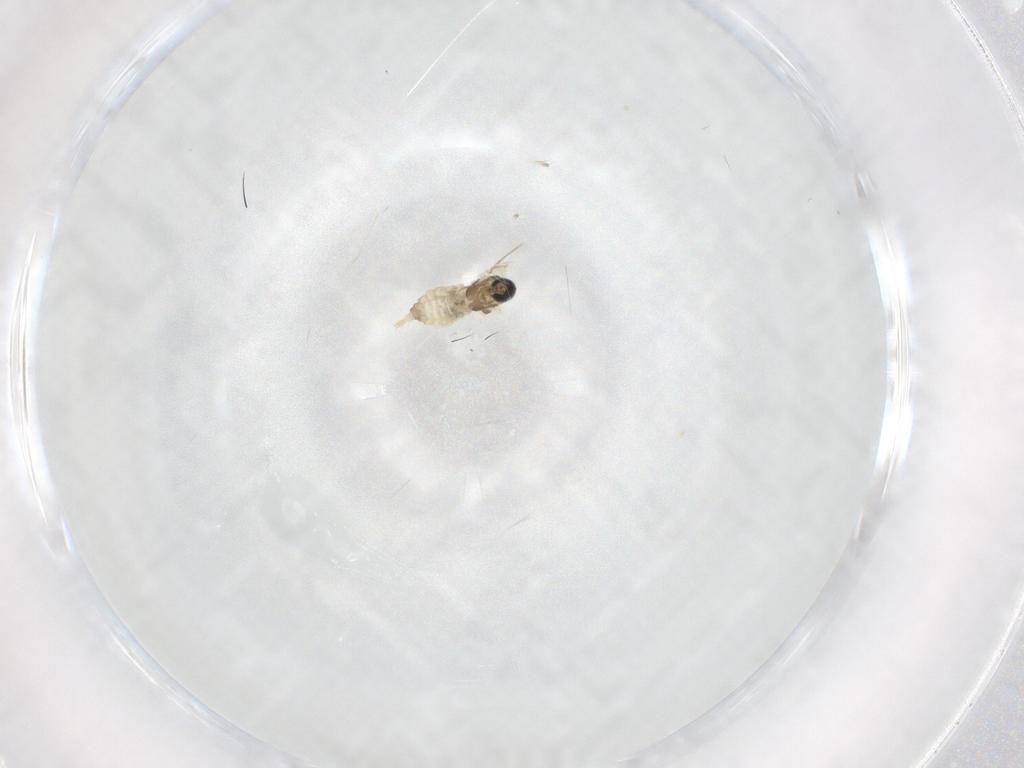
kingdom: Animalia
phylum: Arthropoda
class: Insecta
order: Diptera
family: Cecidomyiidae
